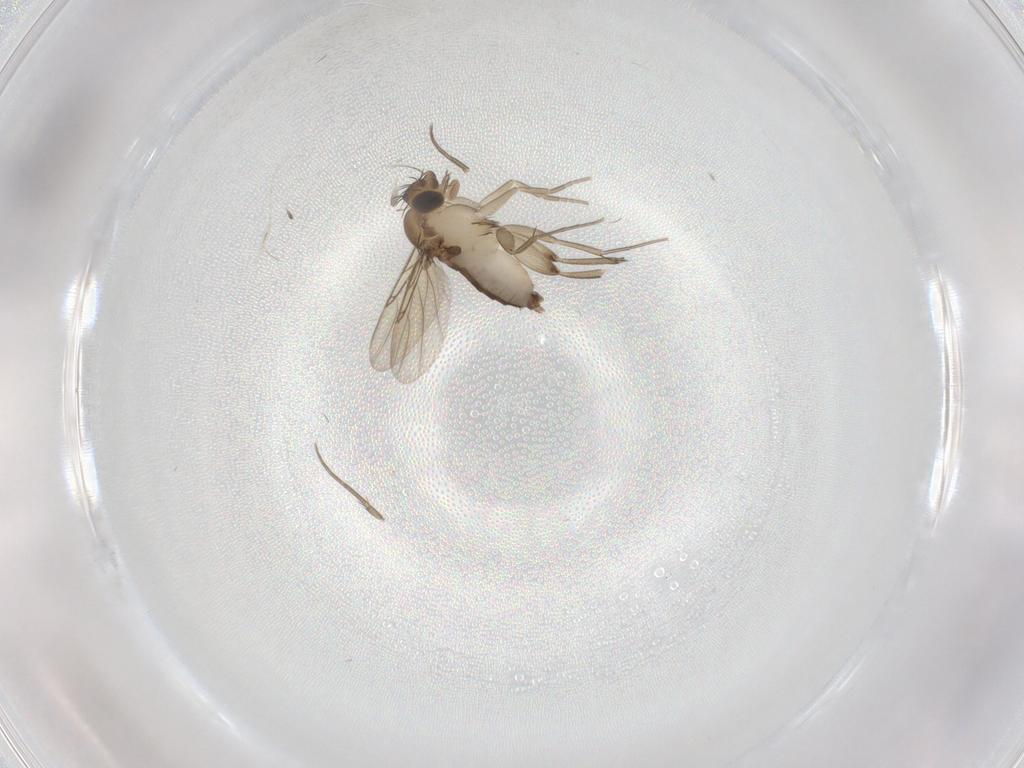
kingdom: Animalia
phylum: Arthropoda
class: Insecta
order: Diptera
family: Phoridae
